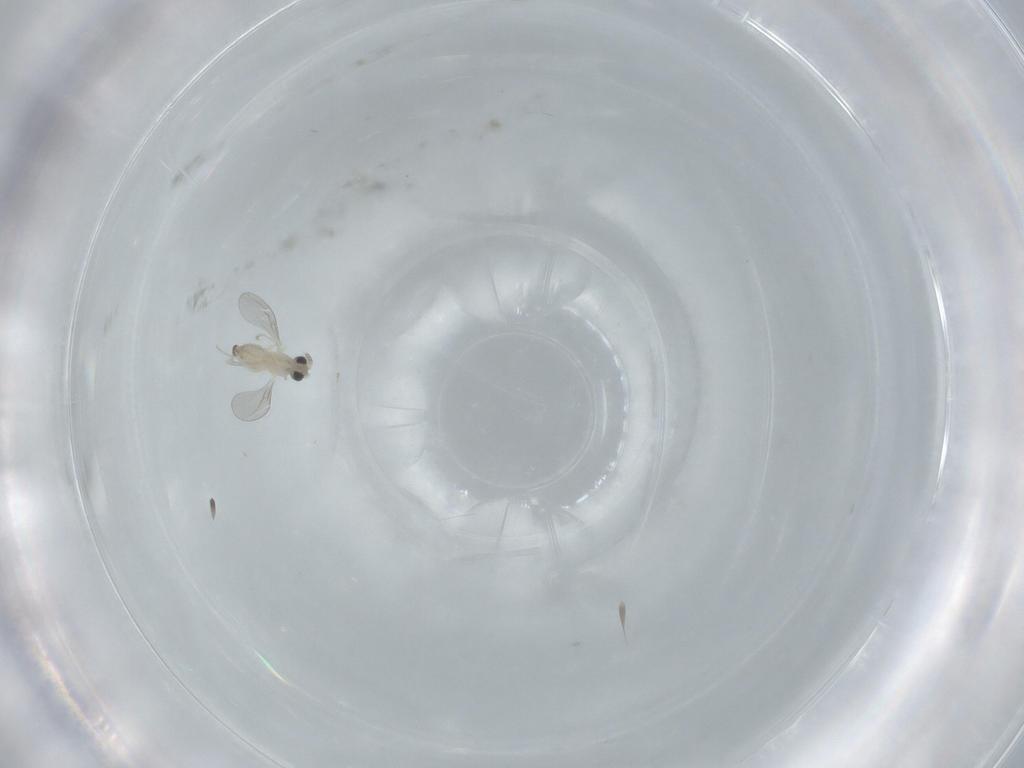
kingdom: Animalia
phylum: Arthropoda
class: Insecta
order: Diptera
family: Cecidomyiidae
